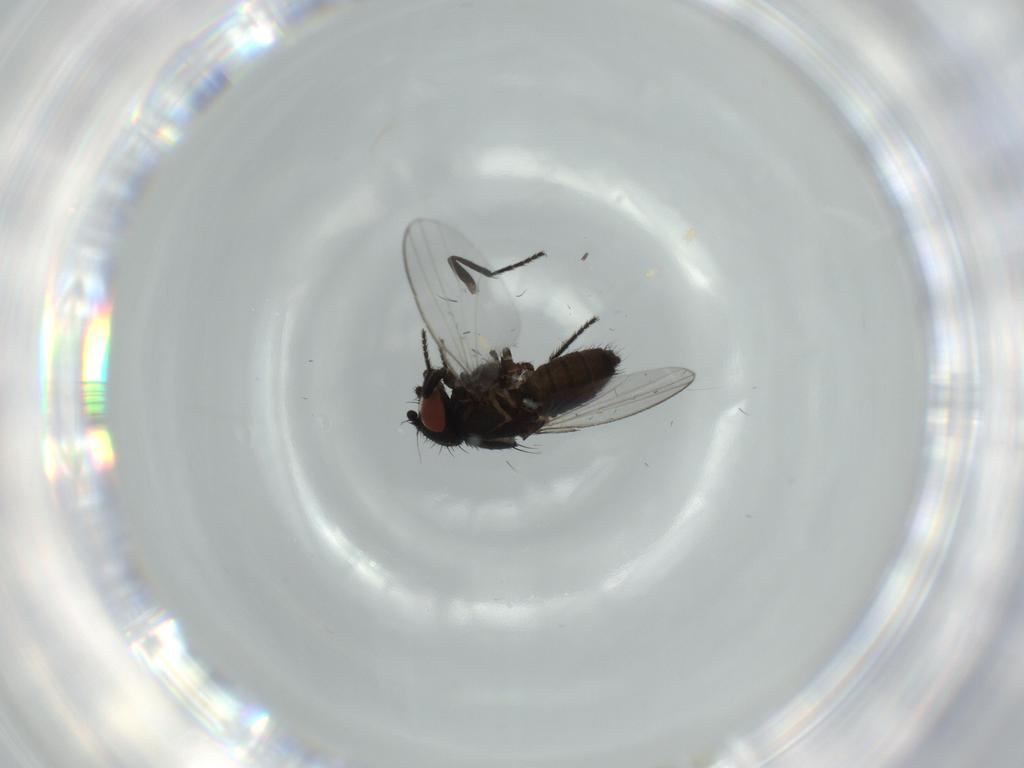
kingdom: Animalia
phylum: Arthropoda
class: Insecta
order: Diptera
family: Milichiidae
